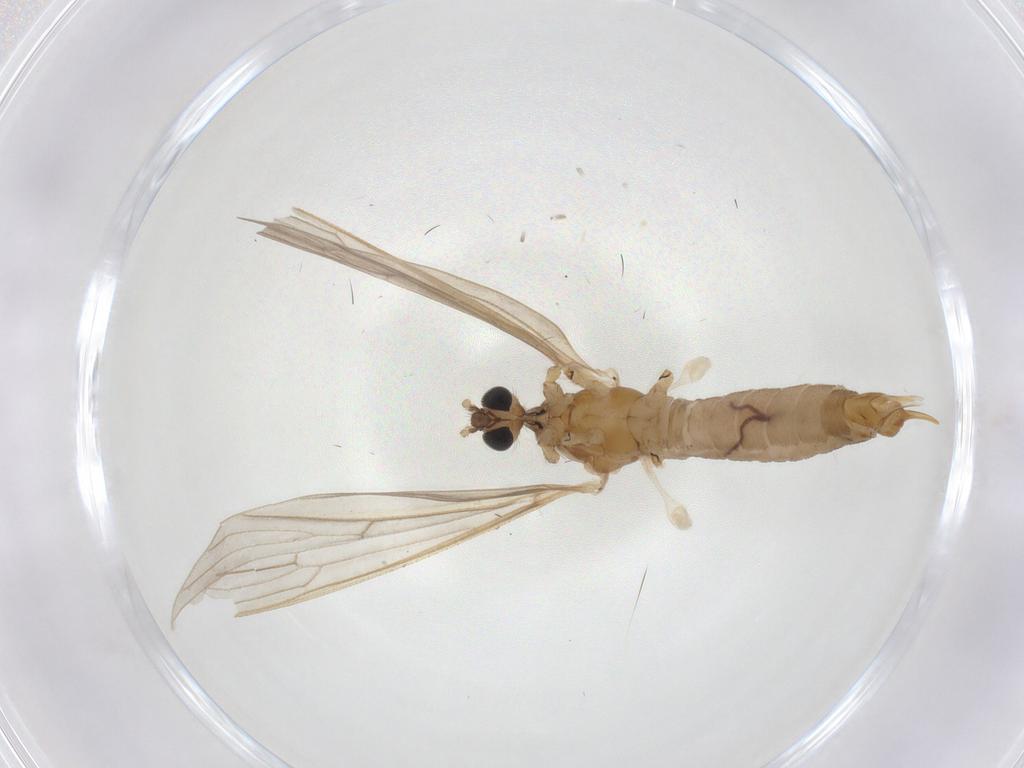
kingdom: Animalia
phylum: Arthropoda
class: Insecta
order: Diptera
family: Limoniidae
